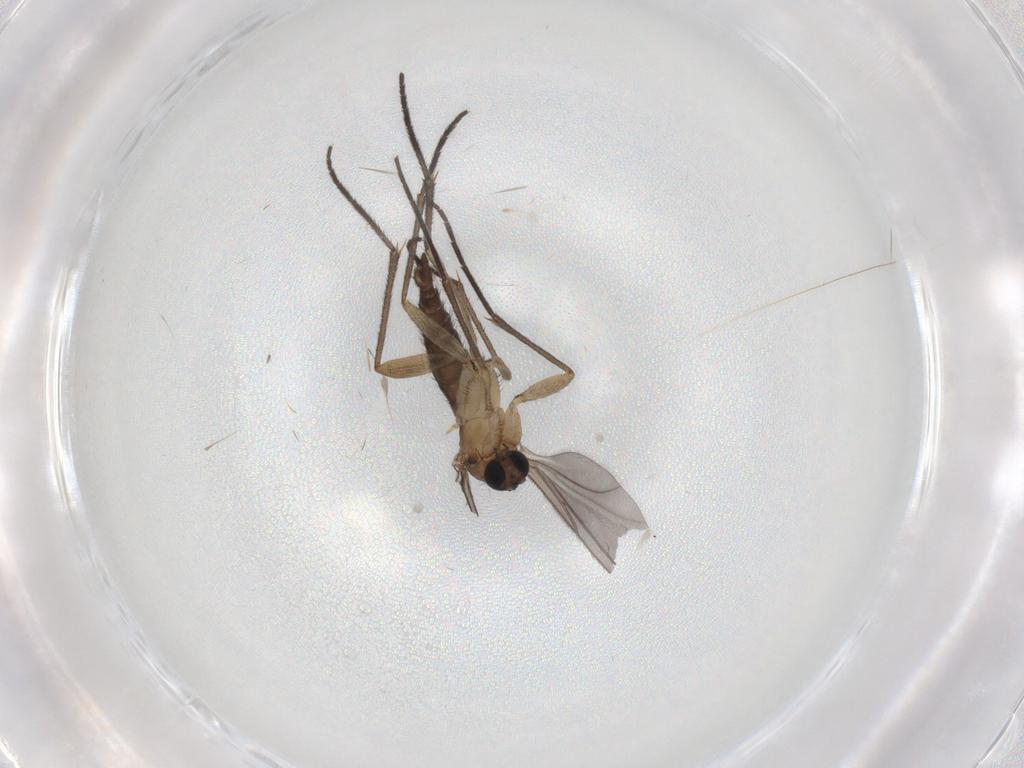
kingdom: Animalia
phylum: Arthropoda
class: Insecta
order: Diptera
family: Sciaridae
